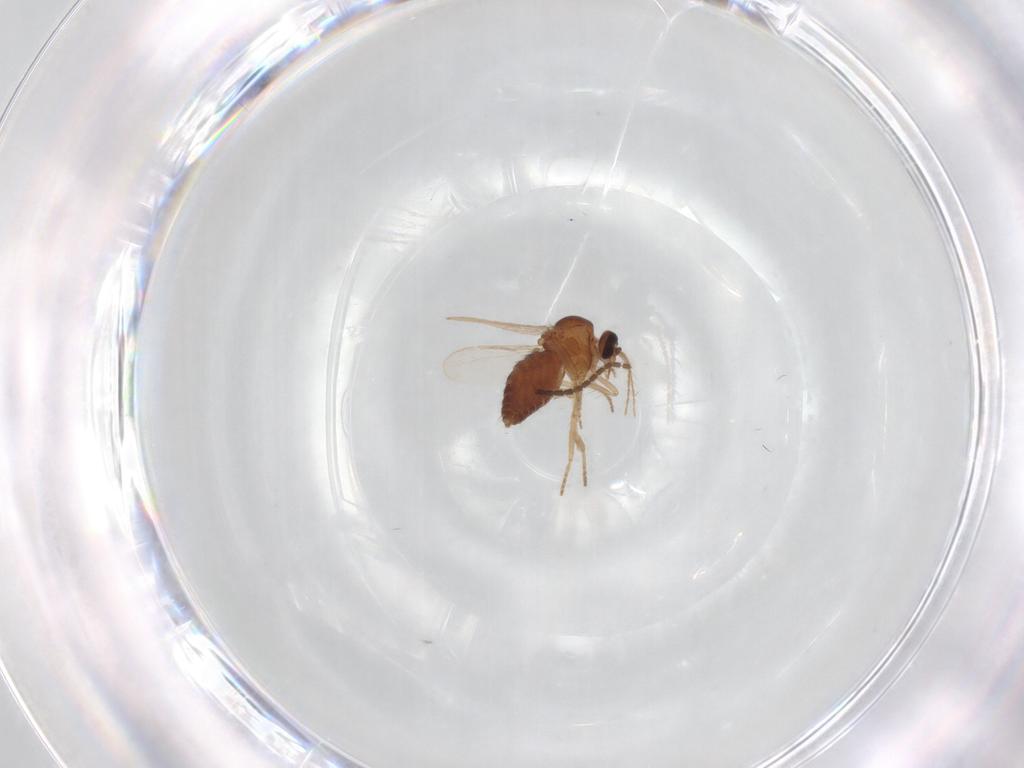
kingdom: Animalia
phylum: Arthropoda
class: Insecta
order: Diptera
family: Ceratopogonidae
